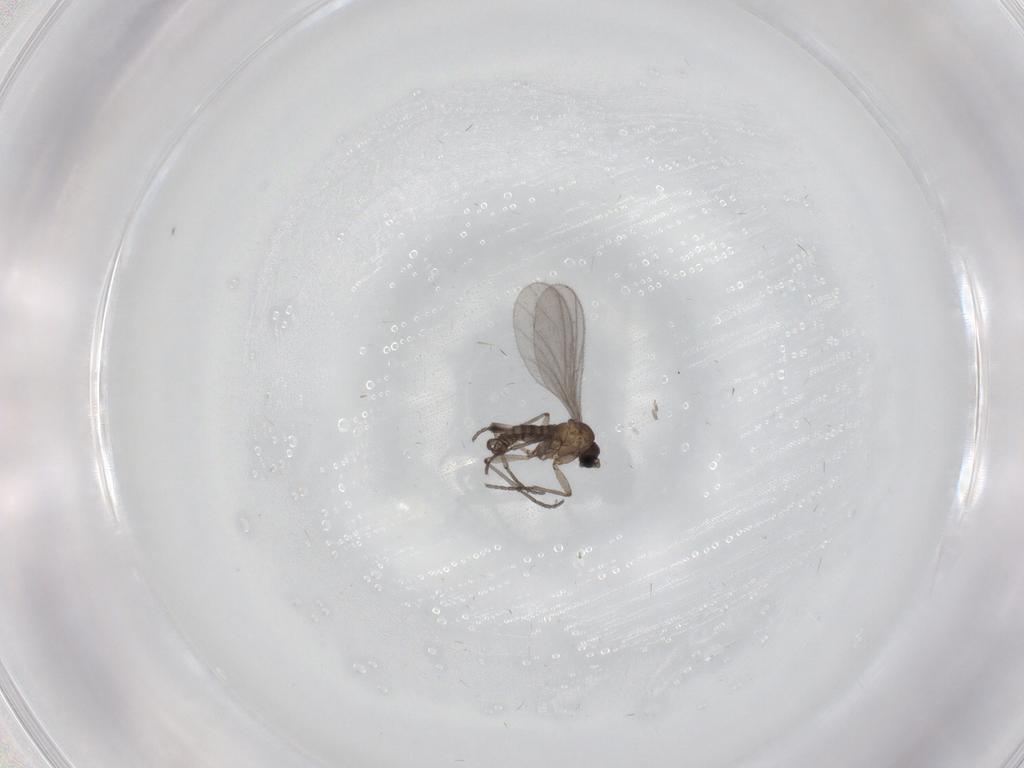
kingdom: Animalia
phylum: Arthropoda
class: Insecta
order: Diptera
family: Sciaridae
